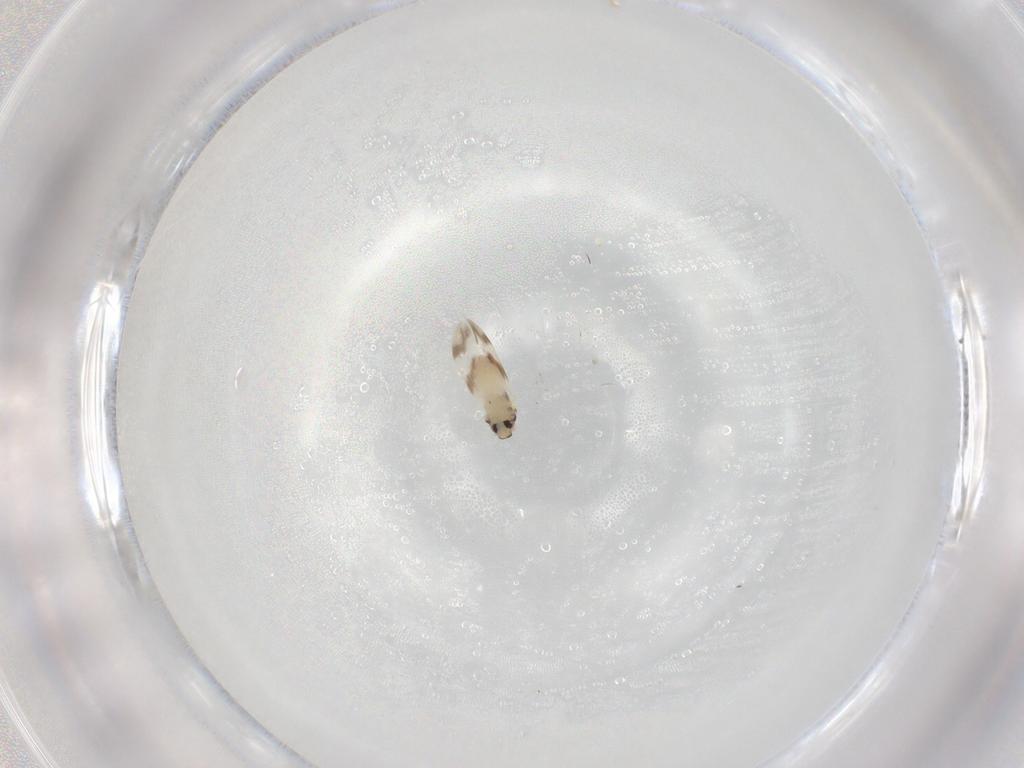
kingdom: Animalia
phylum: Arthropoda
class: Insecta
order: Hemiptera
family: Aleyrodidae
